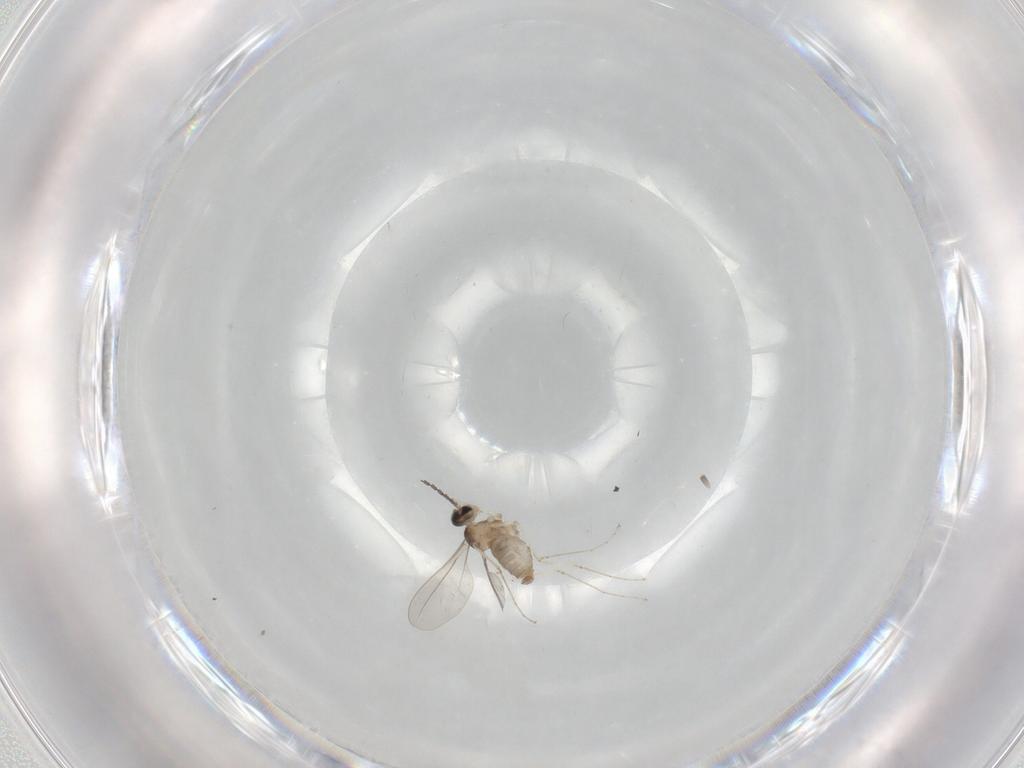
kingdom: Animalia
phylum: Arthropoda
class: Insecta
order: Diptera
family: Cecidomyiidae
